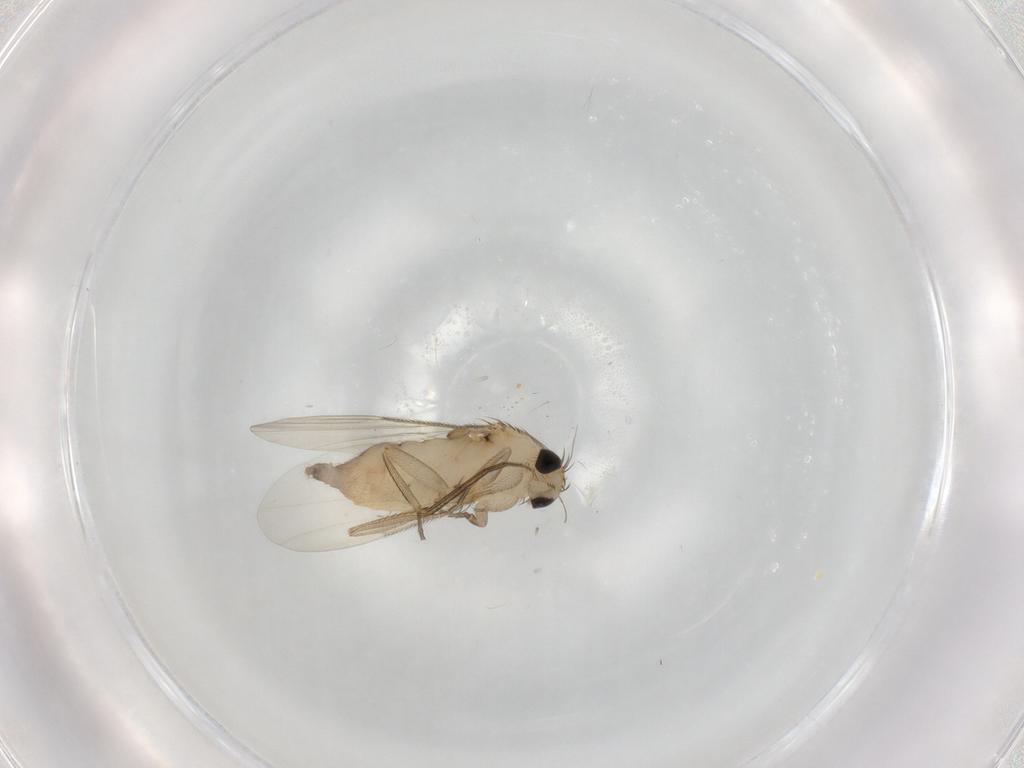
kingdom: Animalia
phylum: Arthropoda
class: Insecta
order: Diptera
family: Phoridae
